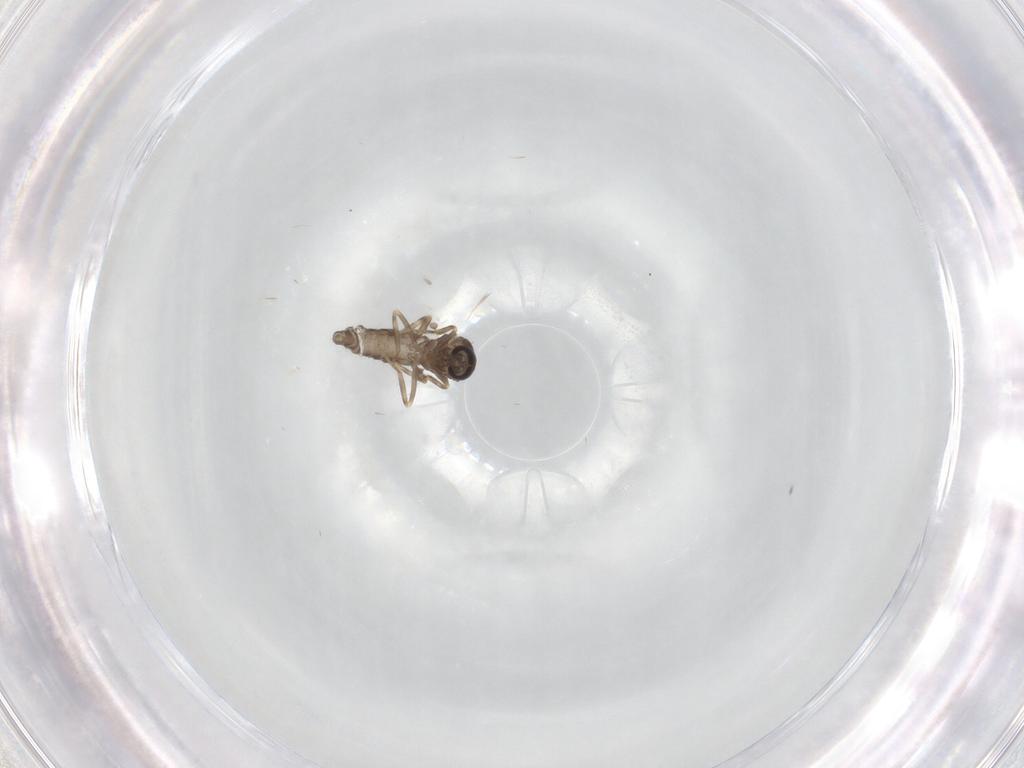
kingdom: Animalia
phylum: Arthropoda
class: Insecta
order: Diptera
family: Ceratopogonidae
